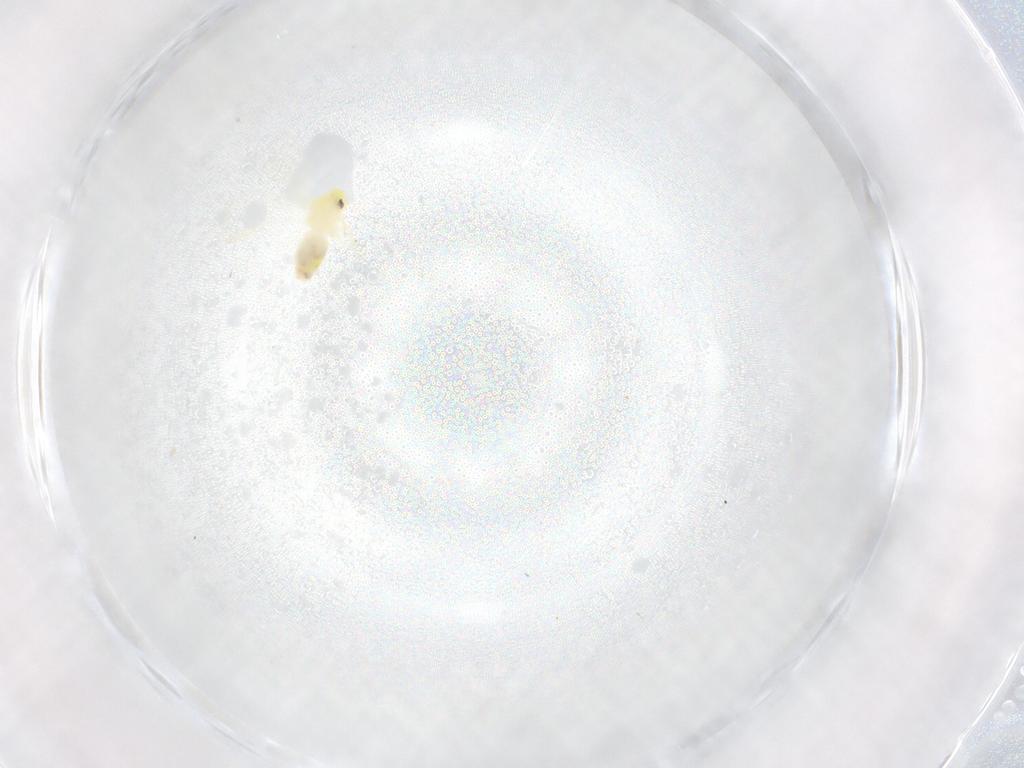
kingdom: Animalia
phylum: Arthropoda
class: Insecta
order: Hemiptera
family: Aleyrodidae
